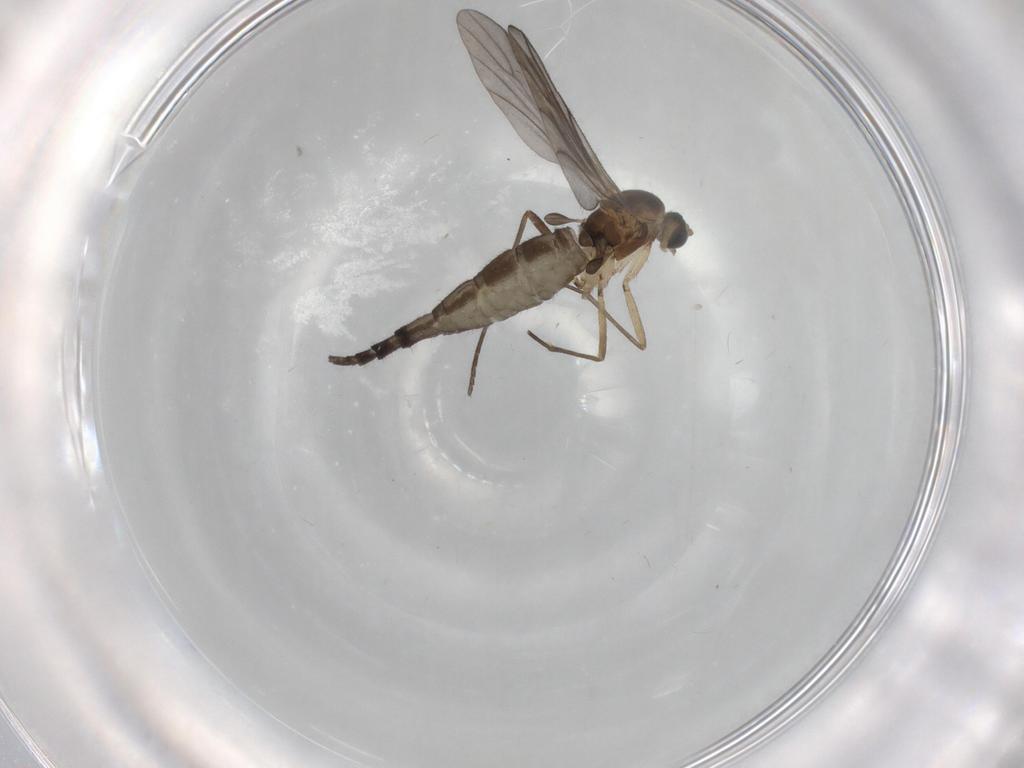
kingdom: Animalia
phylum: Arthropoda
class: Insecta
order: Diptera
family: Sciaridae
